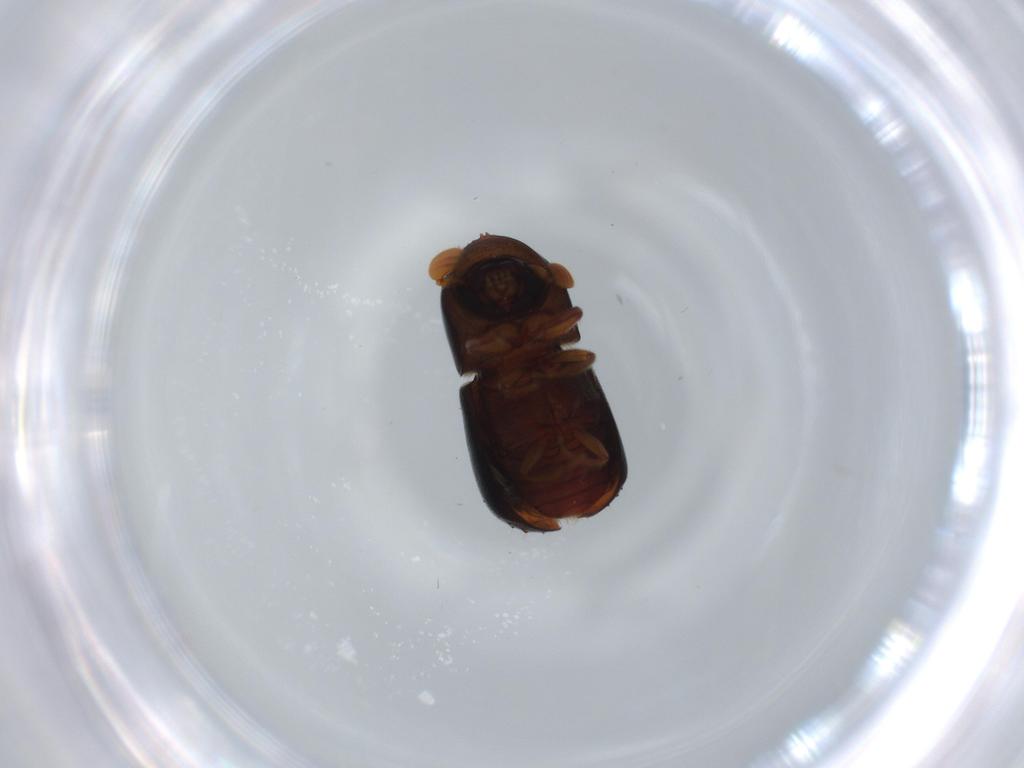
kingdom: Animalia
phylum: Arthropoda
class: Insecta
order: Coleoptera
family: Curculionidae
